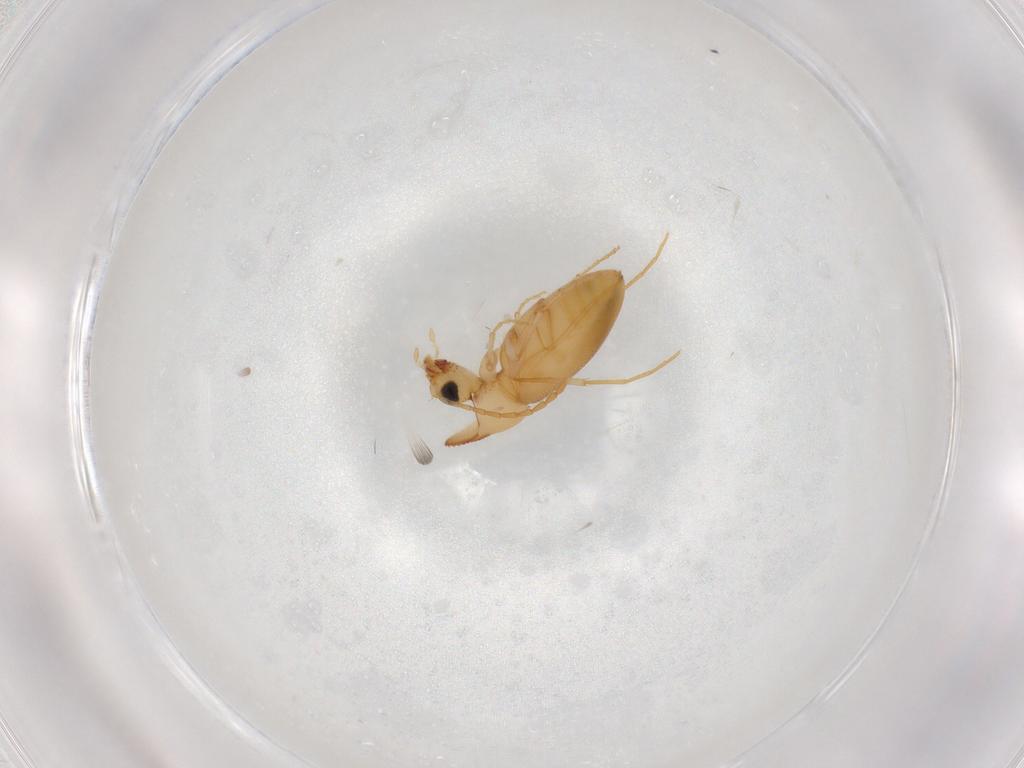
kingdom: Animalia
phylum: Arthropoda
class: Insecta
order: Coleoptera
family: Anthicidae
